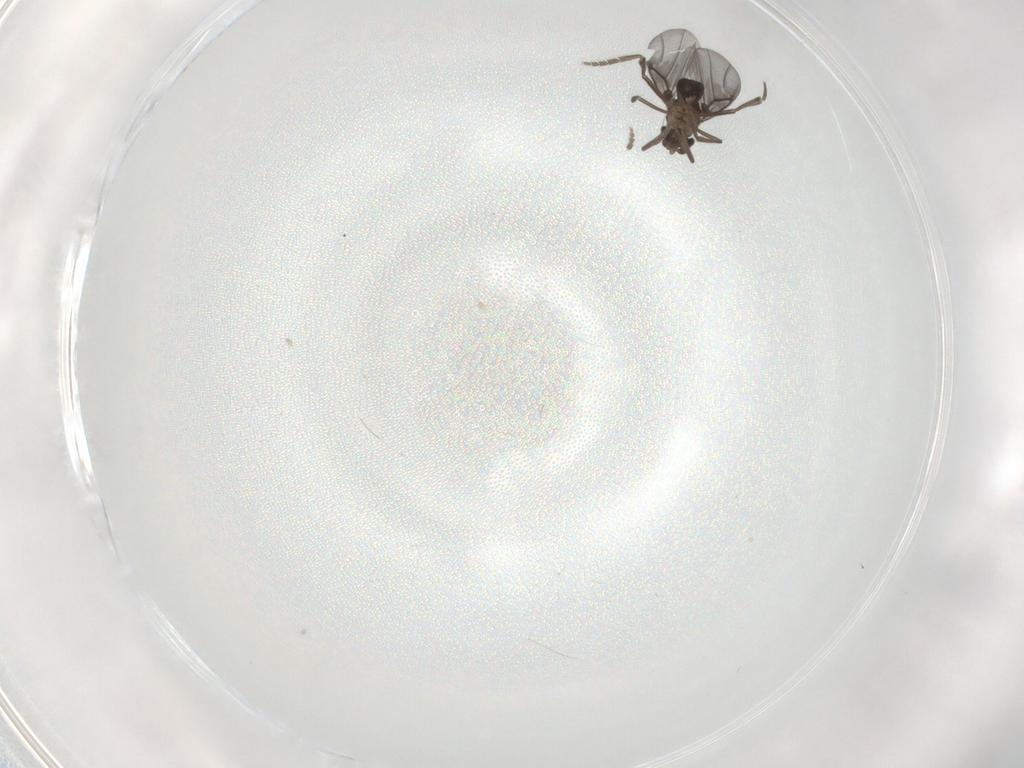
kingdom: Animalia
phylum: Arthropoda
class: Insecta
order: Diptera
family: Phoridae
